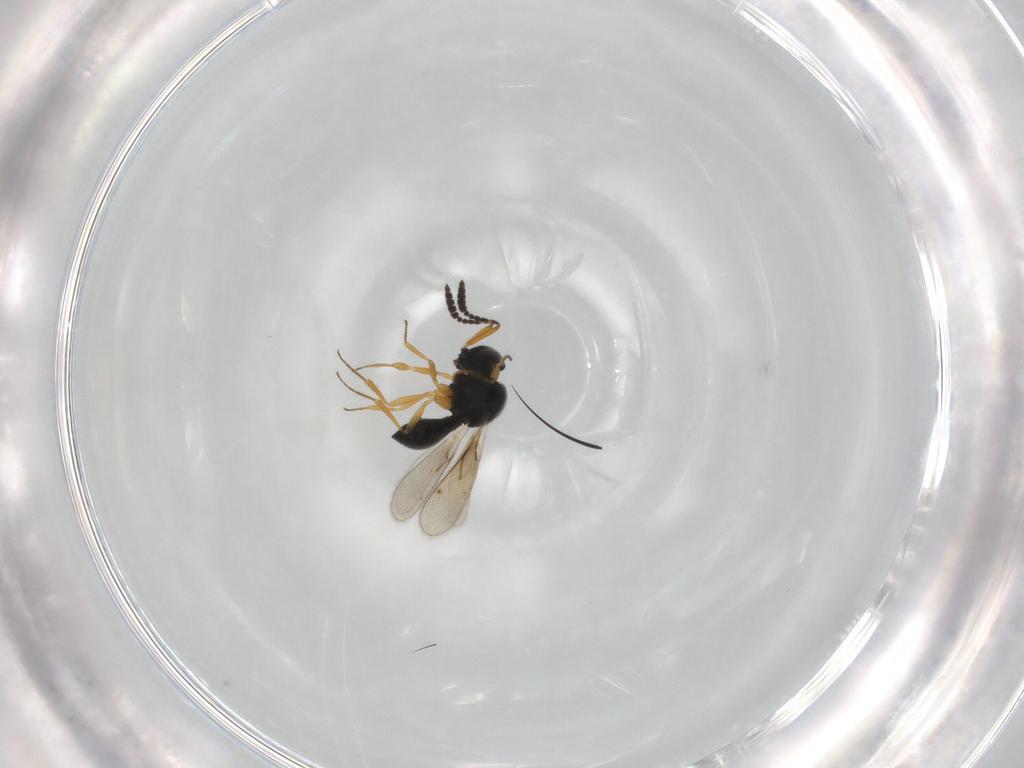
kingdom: Animalia
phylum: Arthropoda
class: Insecta
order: Hymenoptera
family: Scelionidae
